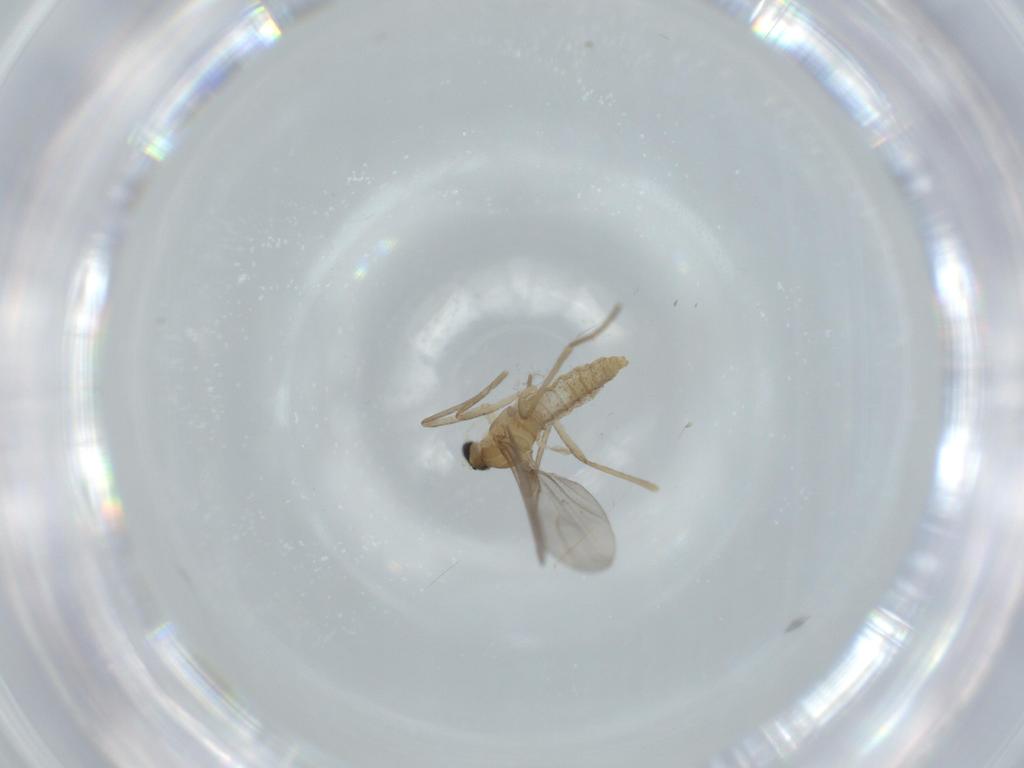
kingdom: Animalia
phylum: Arthropoda
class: Insecta
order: Diptera
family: Cecidomyiidae
